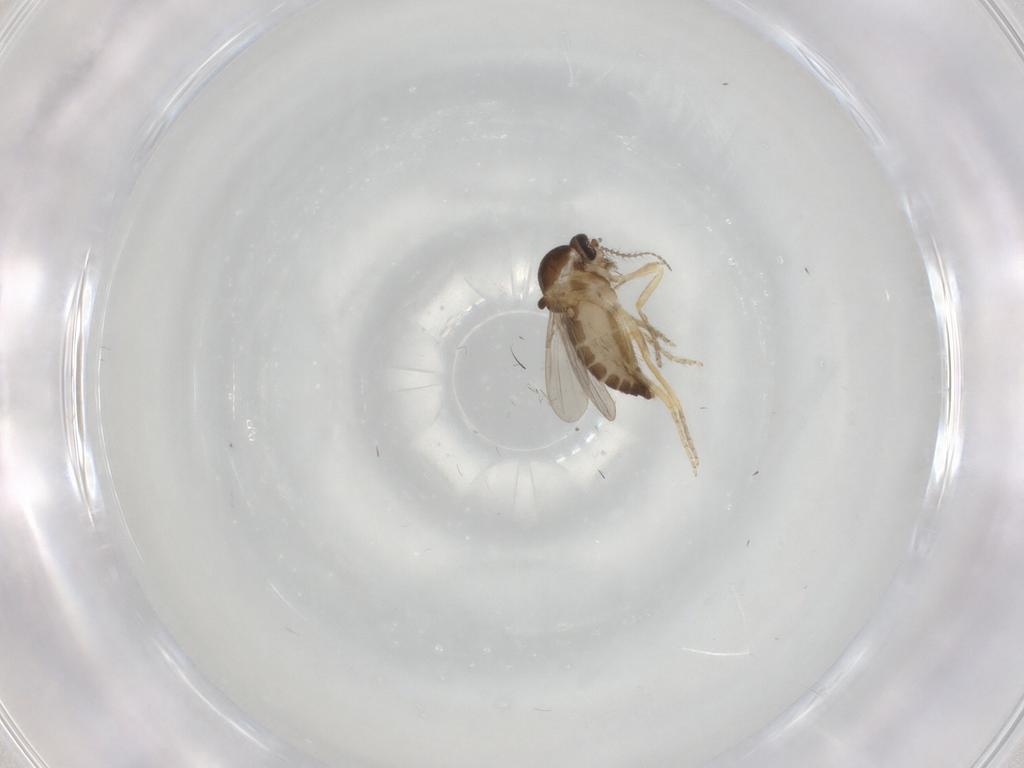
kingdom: Animalia
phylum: Arthropoda
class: Insecta
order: Diptera
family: Ceratopogonidae
